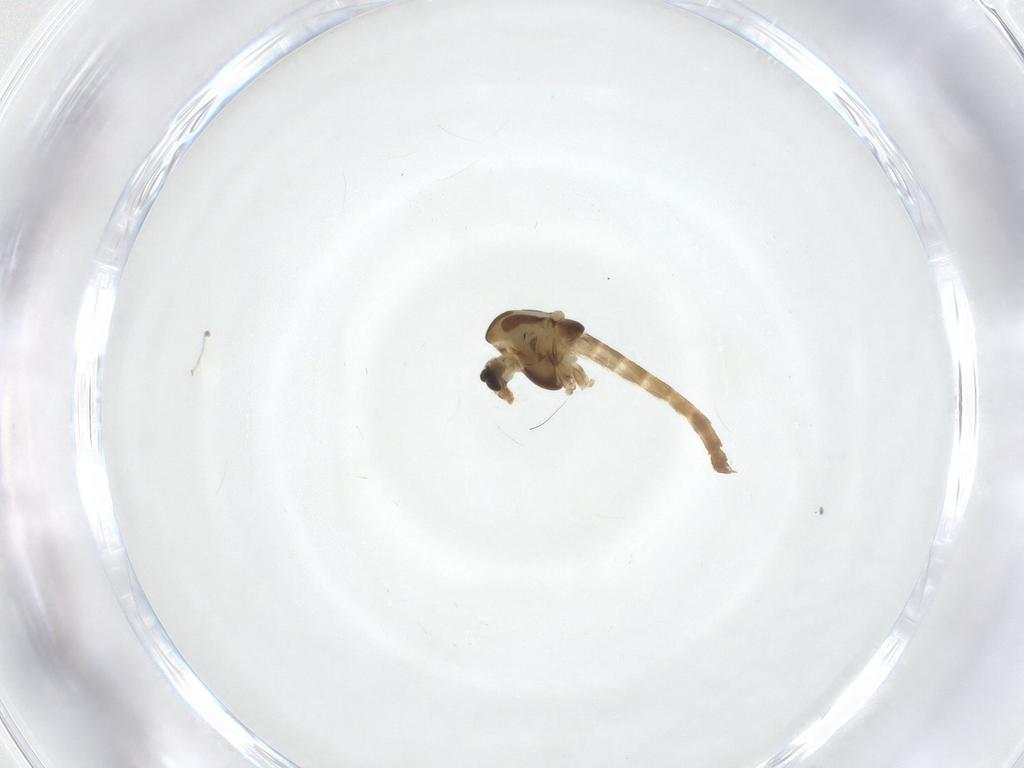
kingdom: Animalia
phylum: Arthropoda
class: Insecta
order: Diptera
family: Chironomidae
